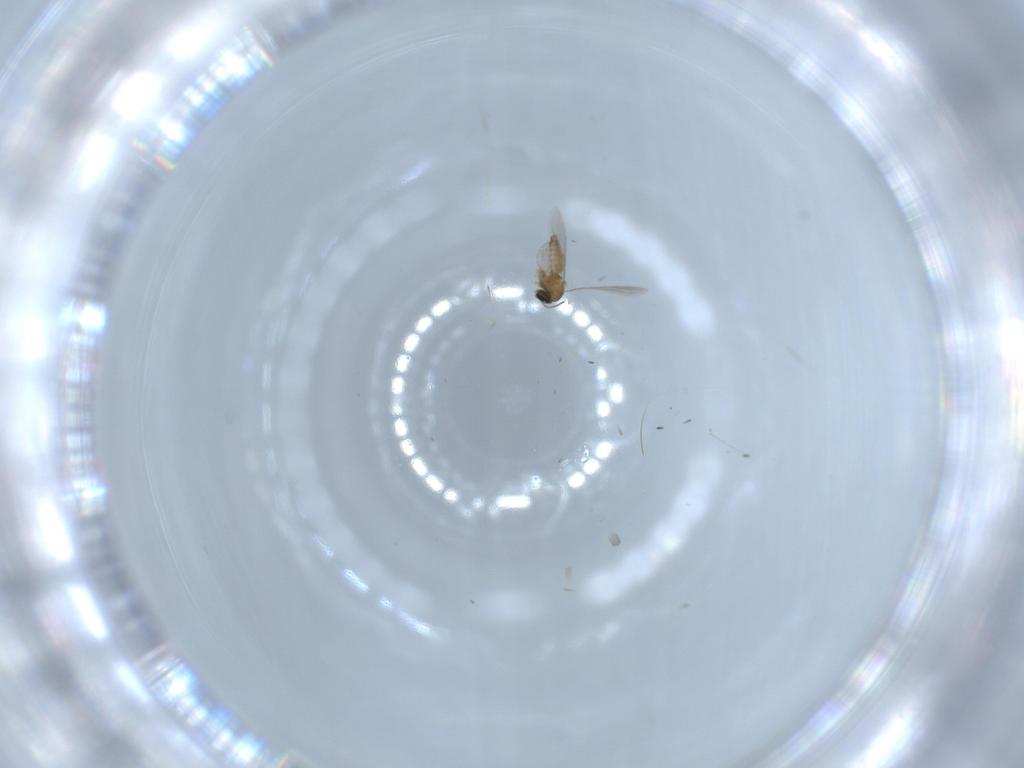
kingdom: Animalia
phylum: Arthropoda
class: Insecta
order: Diptera
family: Cecidomyiidae
